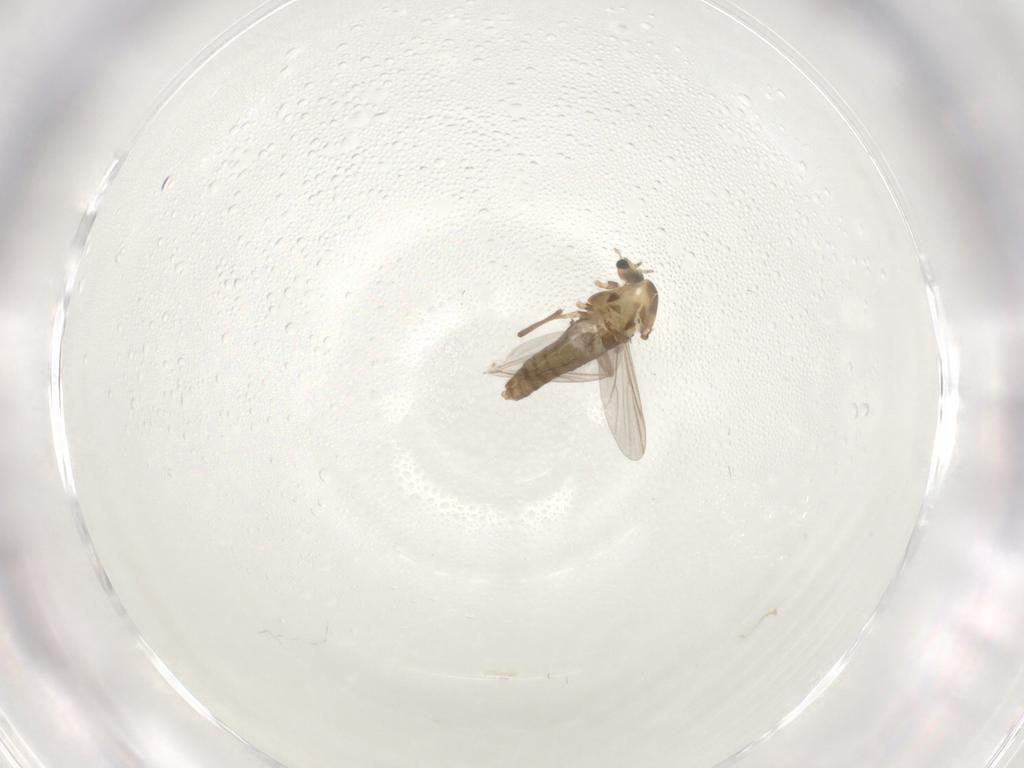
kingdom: Animalia
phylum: Arthropoda
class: Insecta
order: Diptera
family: Chironomidae
